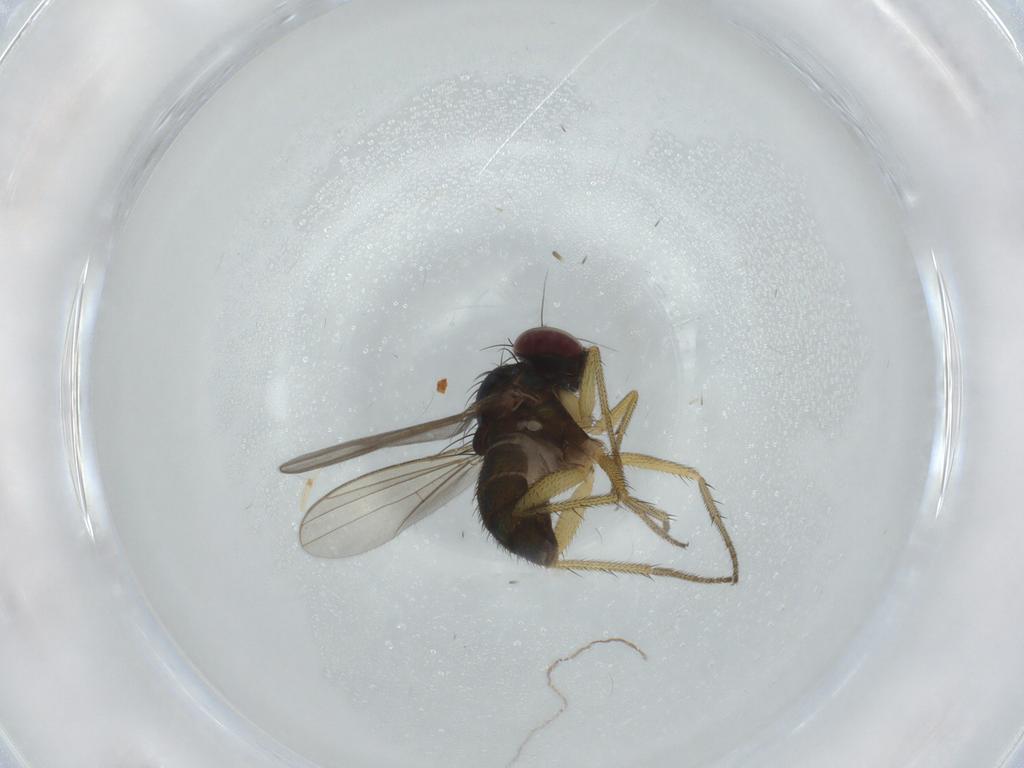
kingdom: Animalia
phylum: Arthropoda
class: Insecta
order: Diptera
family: Dolichopodidae
